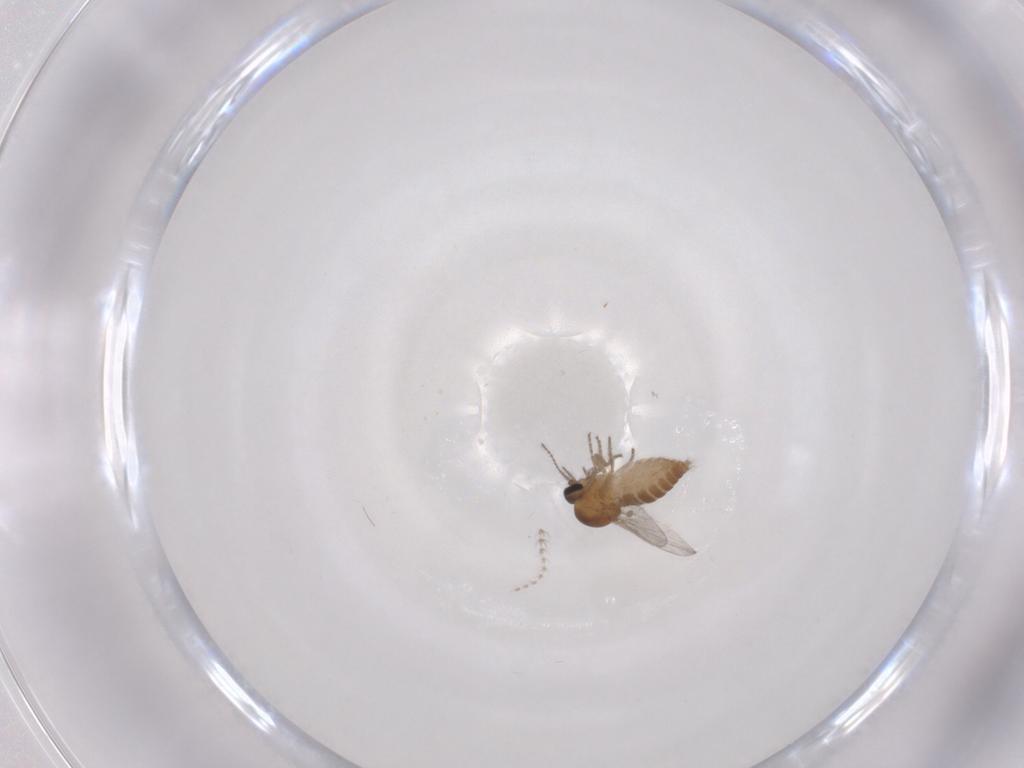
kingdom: Animalia
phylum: Arthropoda
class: Insecta
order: Diptera
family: Ceratopogonidae
